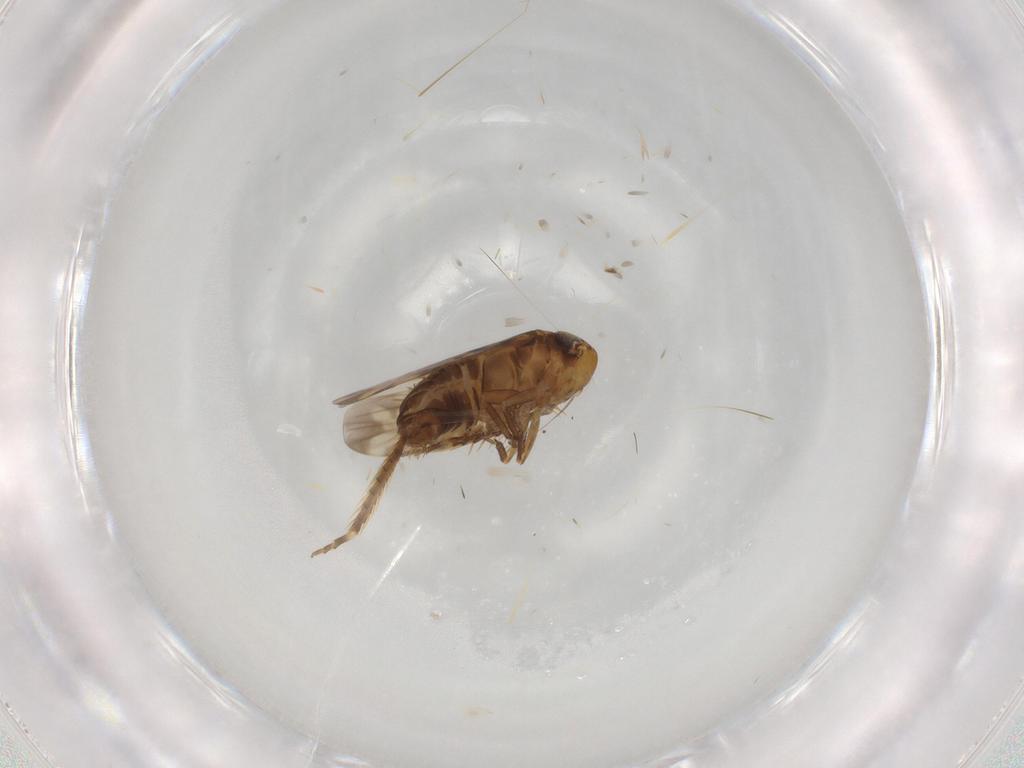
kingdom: Animalia
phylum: Arthropoda
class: Insecta
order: Hemiptera
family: Cicadellidae
